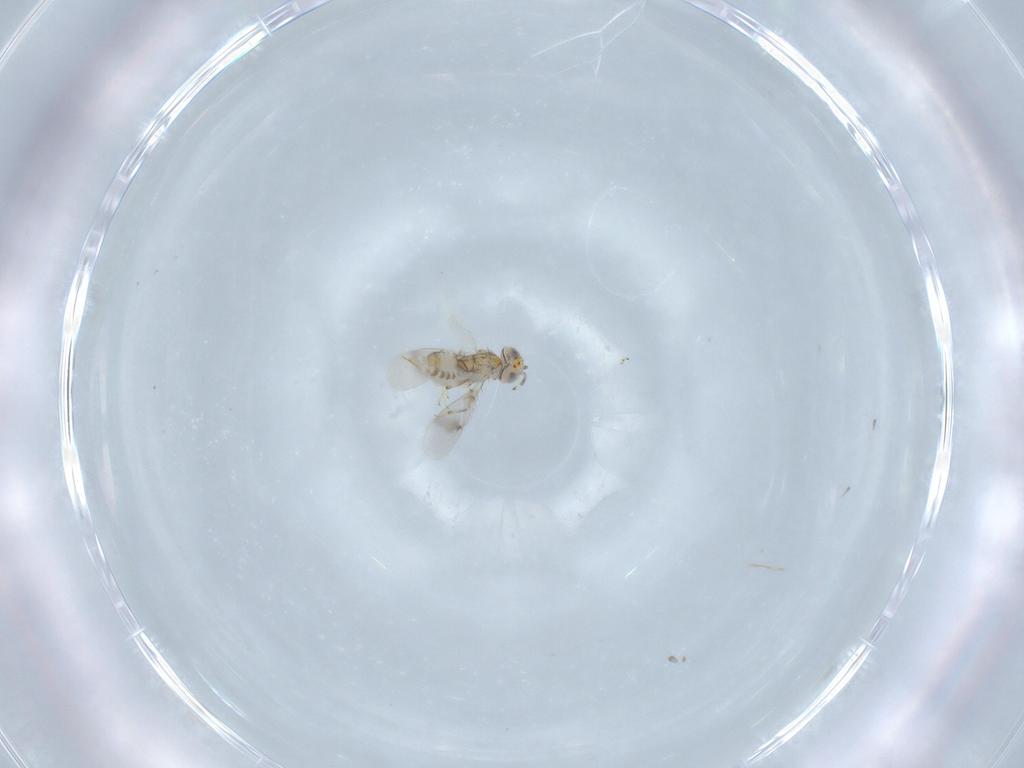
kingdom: Animalia
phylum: Arthropoda
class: Insecta
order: Hymenoptera
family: Aphelinidae
